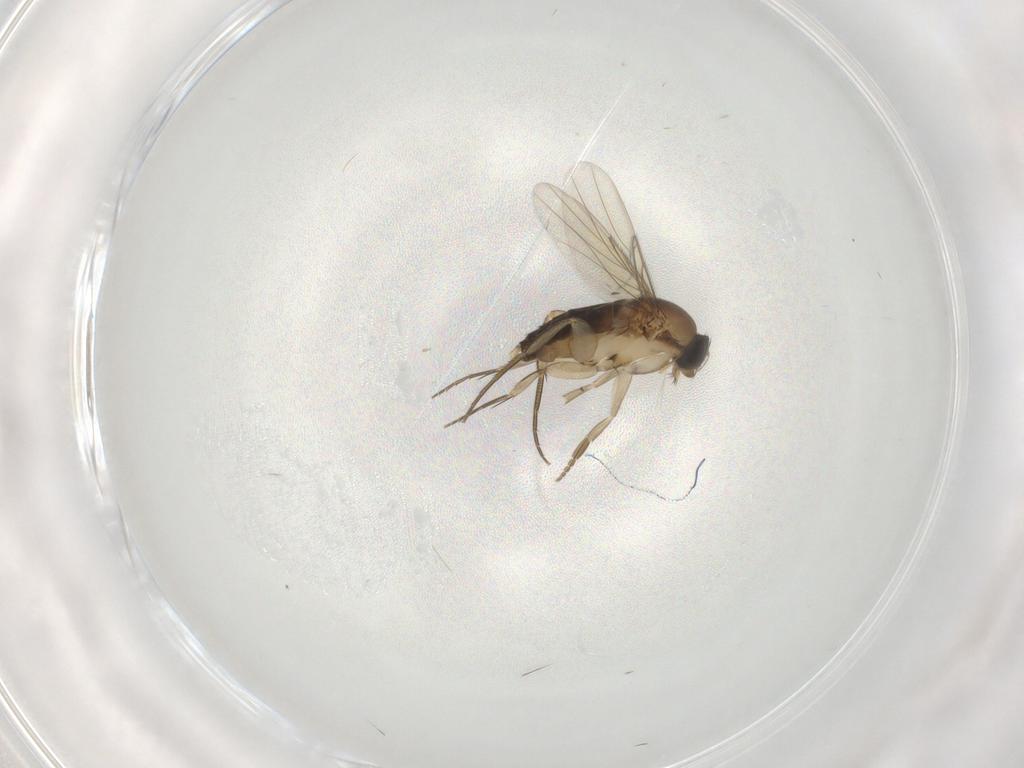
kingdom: Animalia
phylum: Arthropoda
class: Insecta
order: Diptera
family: Phoridae
